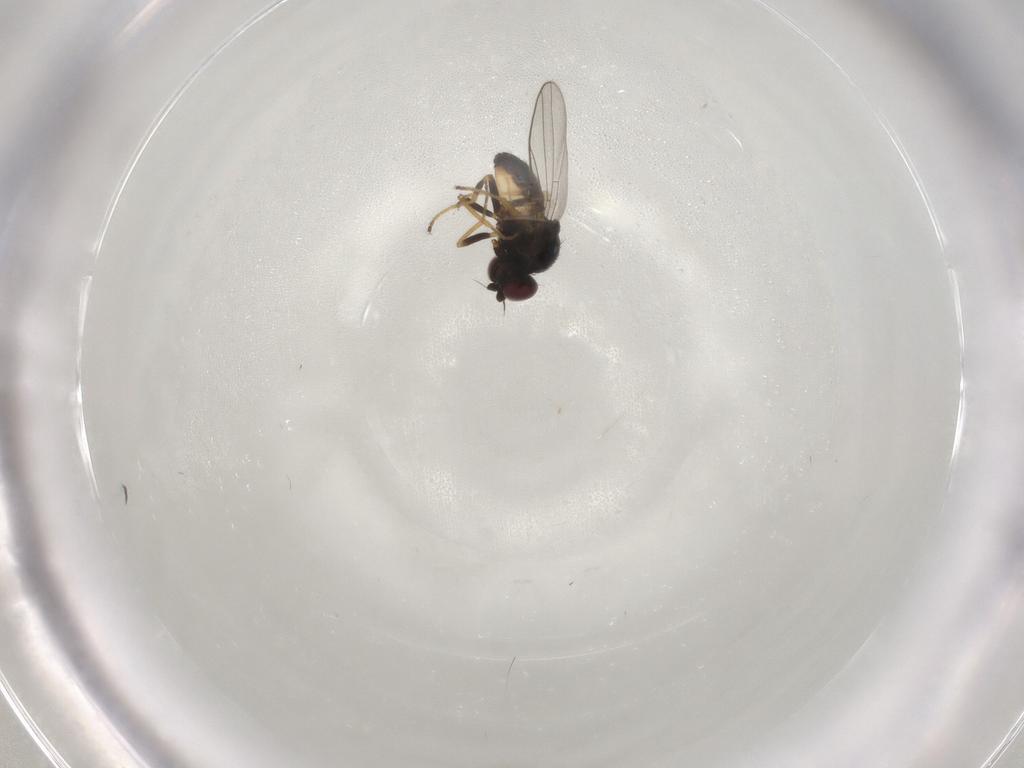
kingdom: Animalia
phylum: Arthropoda
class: Insecta
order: Diptera
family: Chloropidae
